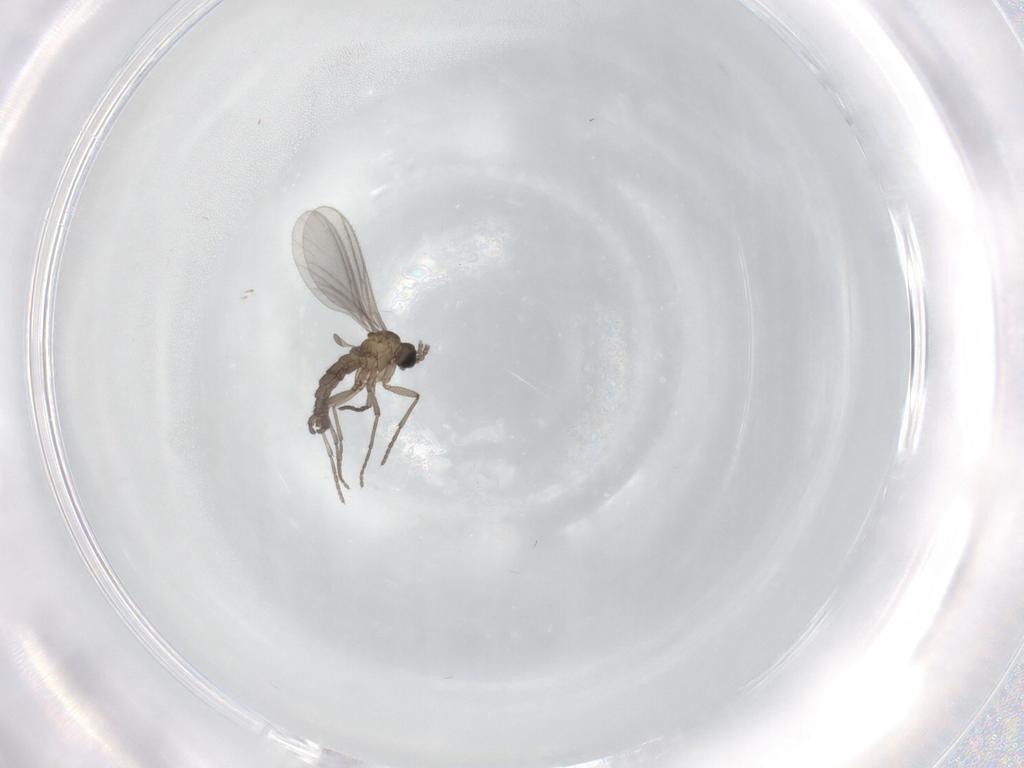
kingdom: Animalia
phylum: Arthropoda
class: Insecta
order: Diptera
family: Sciaridae
